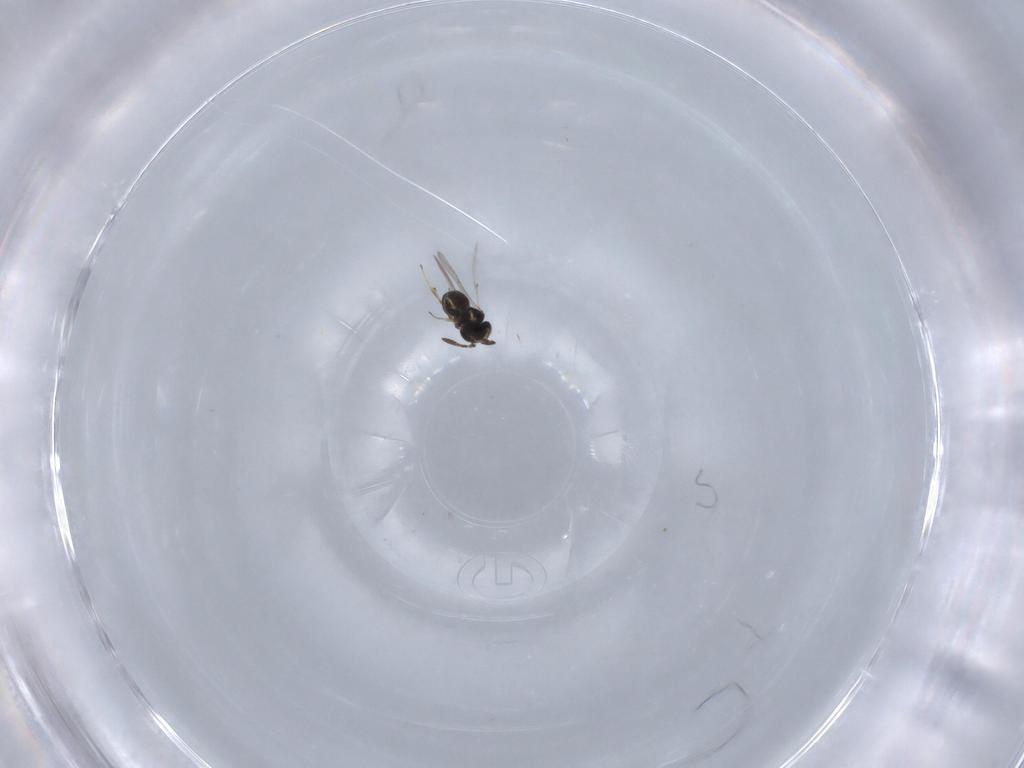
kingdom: Animalia
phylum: Arthropoda
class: Insecta
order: Hymenoptera
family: Scelionidae
